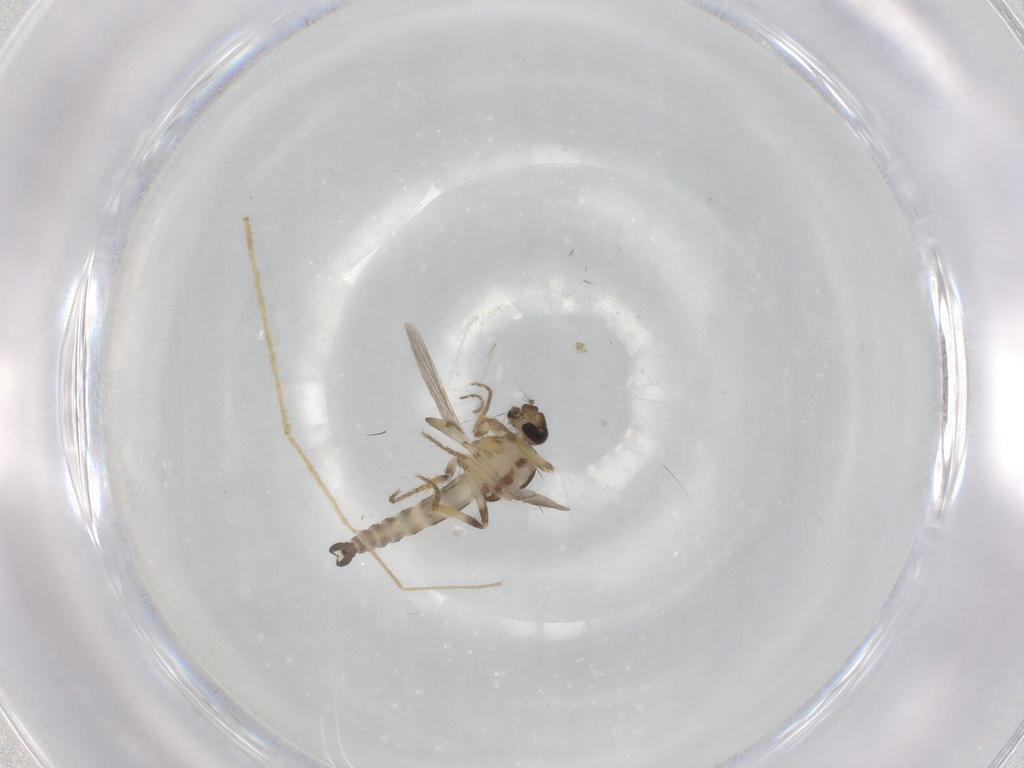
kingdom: Animalia
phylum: Arthropoda
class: Insecta
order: Diptera
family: Ceratopogonidae
